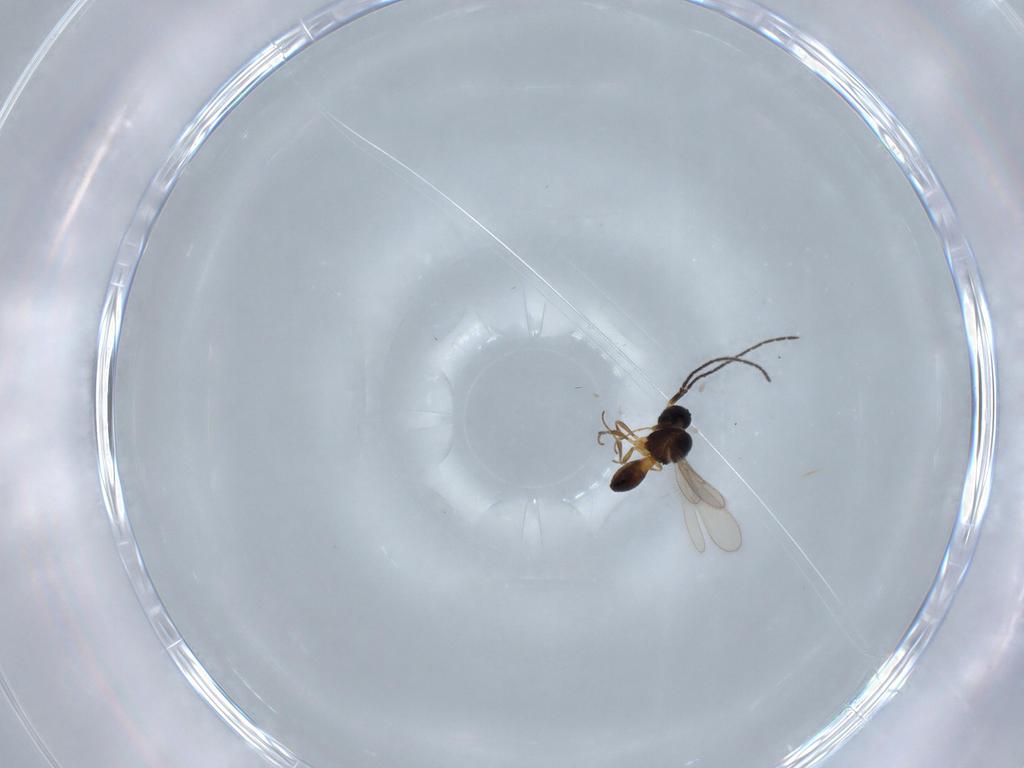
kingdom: Animalia
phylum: Arthropoda
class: Insecta
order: Hymenoptera
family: Scelionidae
